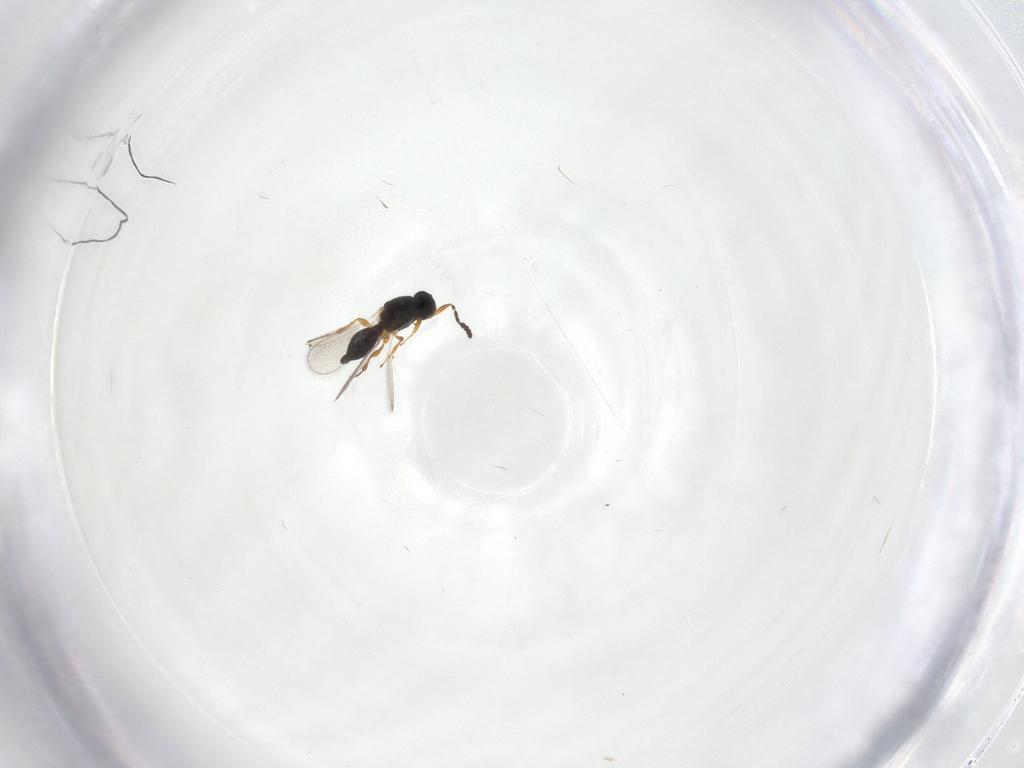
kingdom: Animalia
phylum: Arthropoda
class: Insecta
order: Hymenoptera
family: Platygastridae
